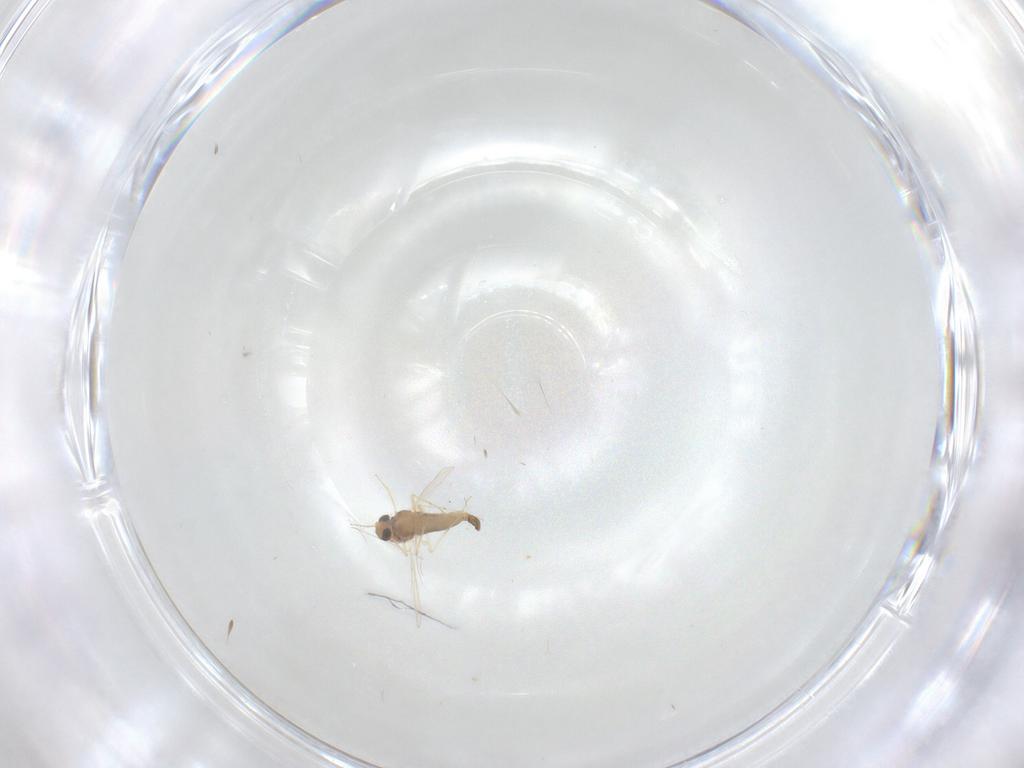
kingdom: Animalia
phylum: Arthropoda
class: Insecta
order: Diptera
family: Chironomidae
